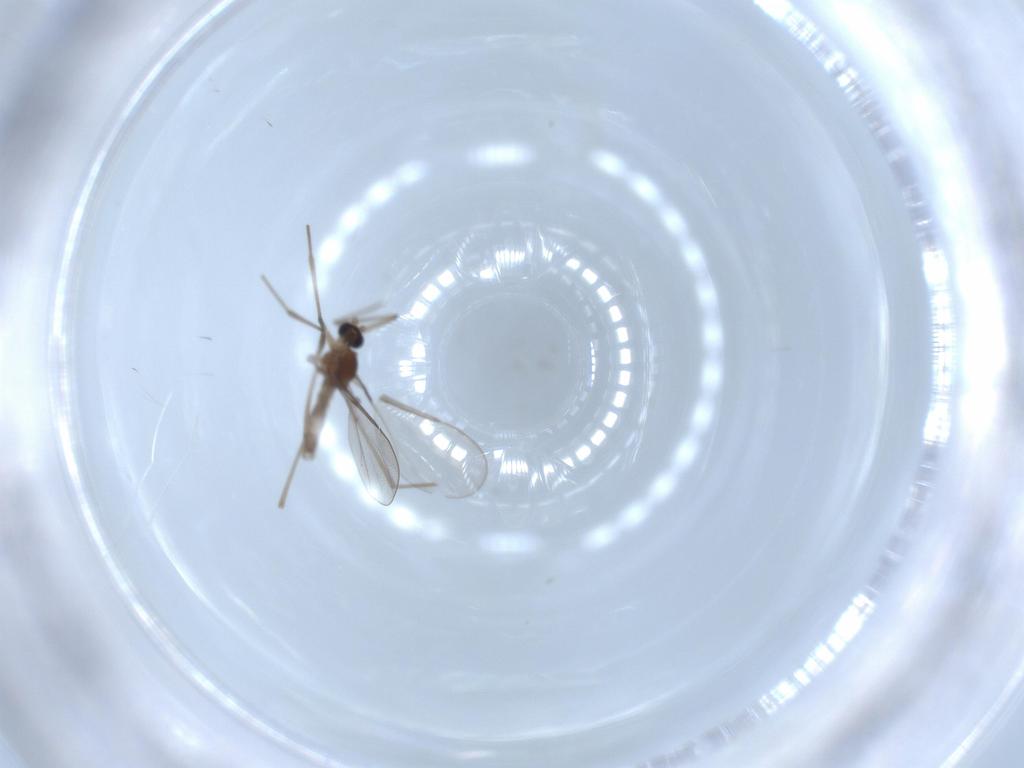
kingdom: Animalia
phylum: Arthropoda
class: Insecta
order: Diptera
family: Cecidomyiidae
